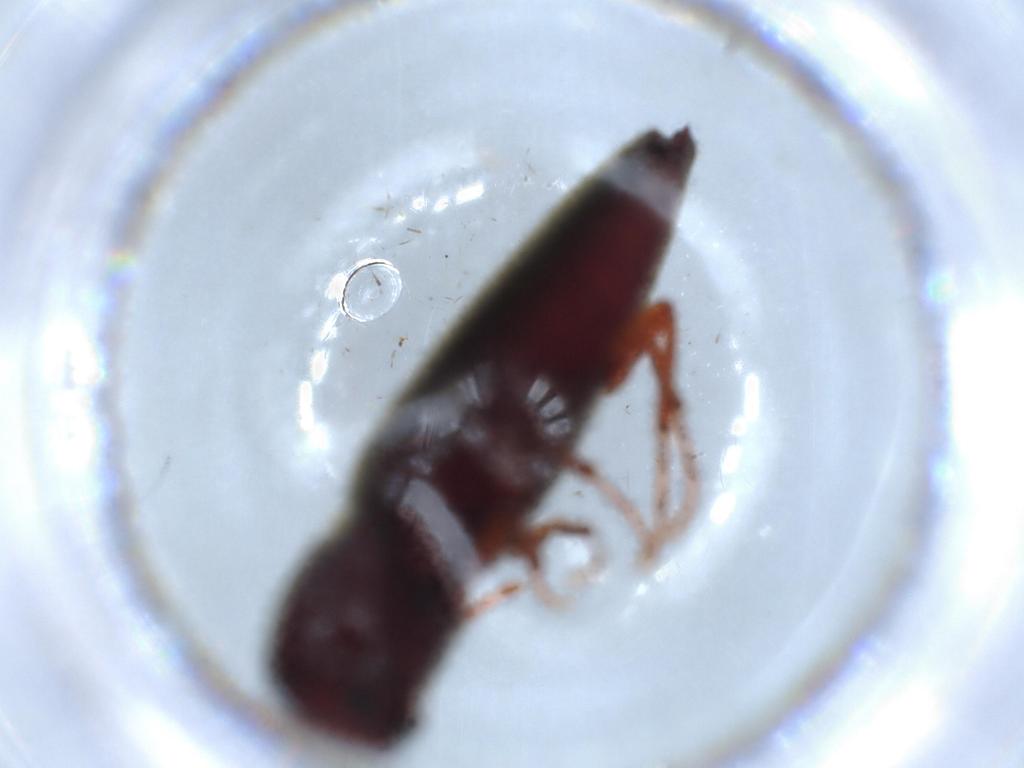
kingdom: Animalia
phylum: Arthropoda
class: Insecta
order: Coleoptera
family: Eucnemidae
